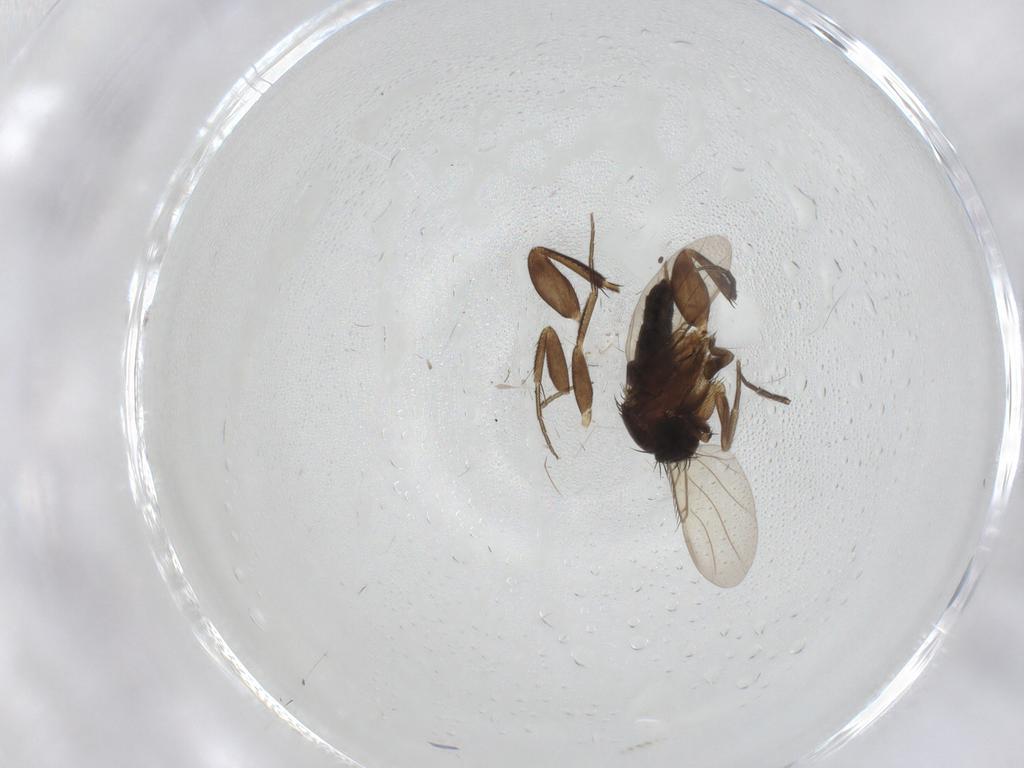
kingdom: Animalia
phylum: Arthropoda
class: Insecta
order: Diptera
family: Phoridae
